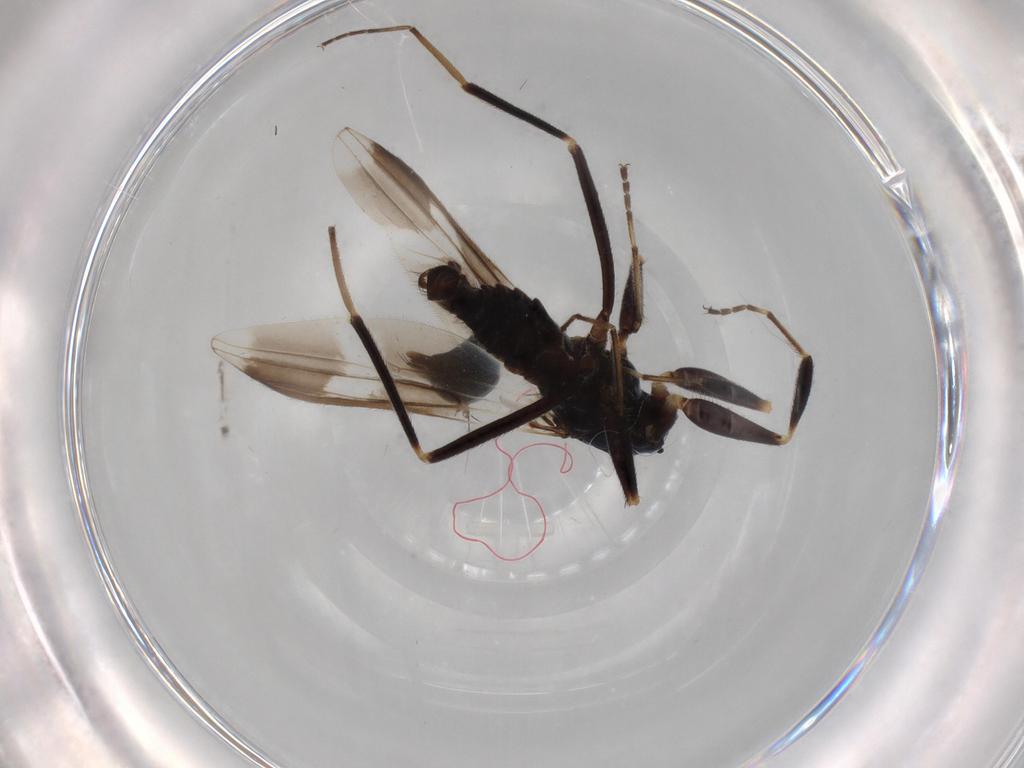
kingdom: Animalia
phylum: Arthropoda
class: Insecta
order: Diptera
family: Hybotidae
